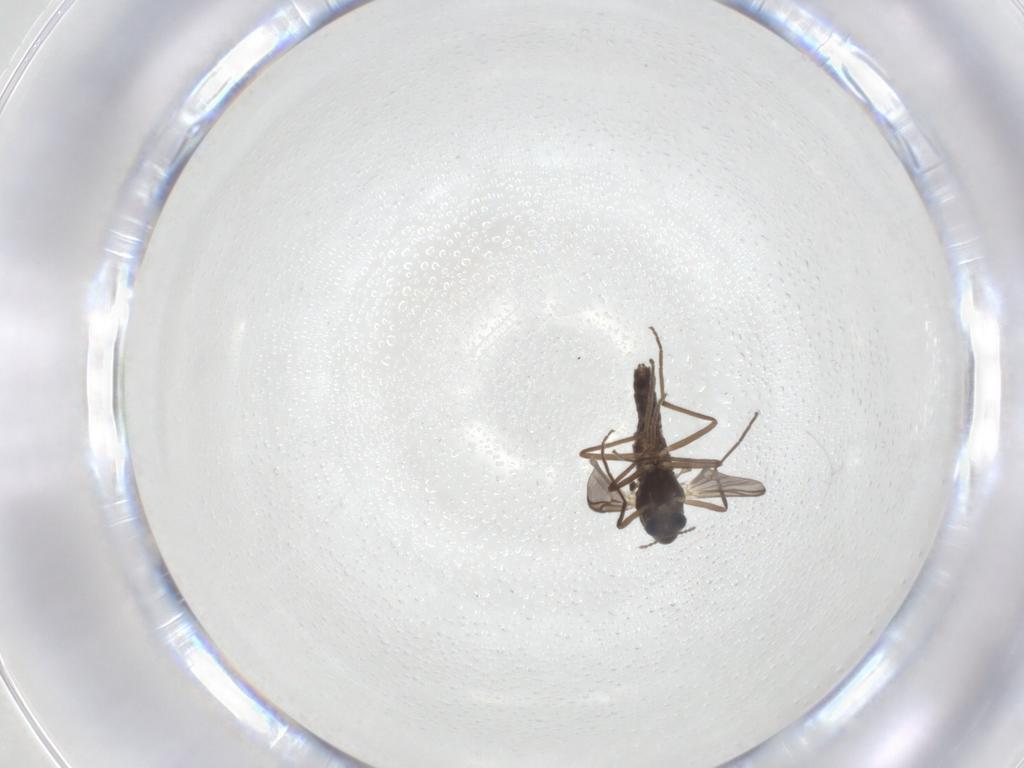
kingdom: Animalia
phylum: Arthropoda
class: Insecta
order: Diptera
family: Chironomidae
